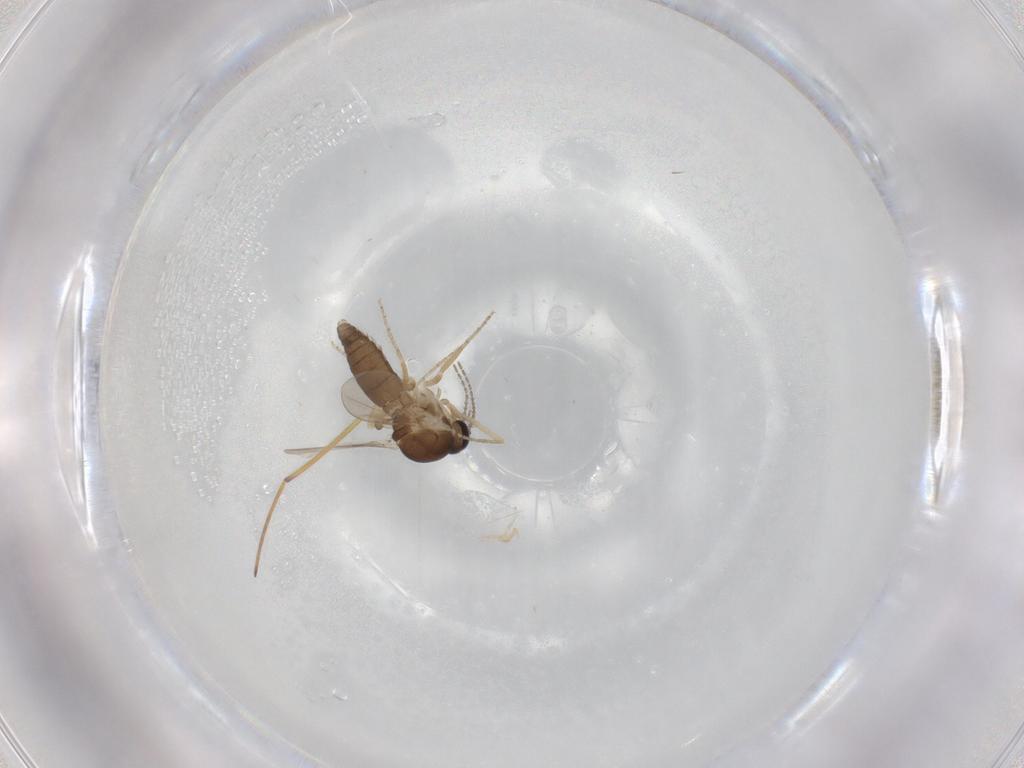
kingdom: Animalia
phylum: Arthropoda
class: Insecta
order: Diptera
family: Ceratopogonidae
